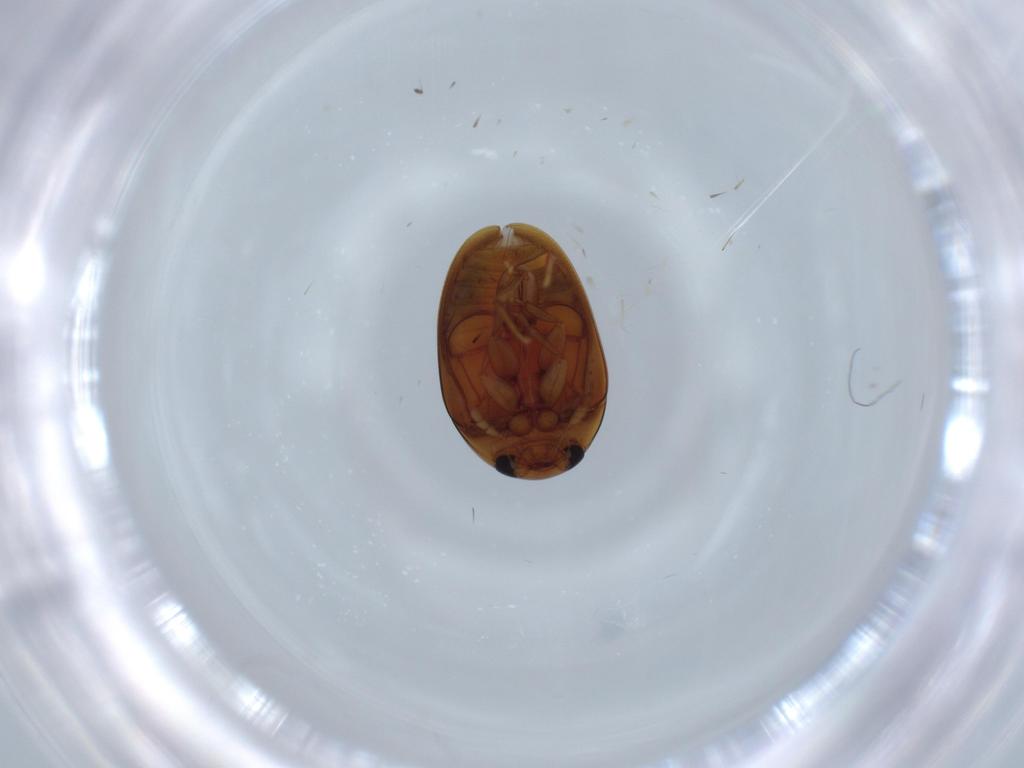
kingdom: Animalia
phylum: Arthropoda
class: Insecta
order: Coleoptera
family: Phalacridae
